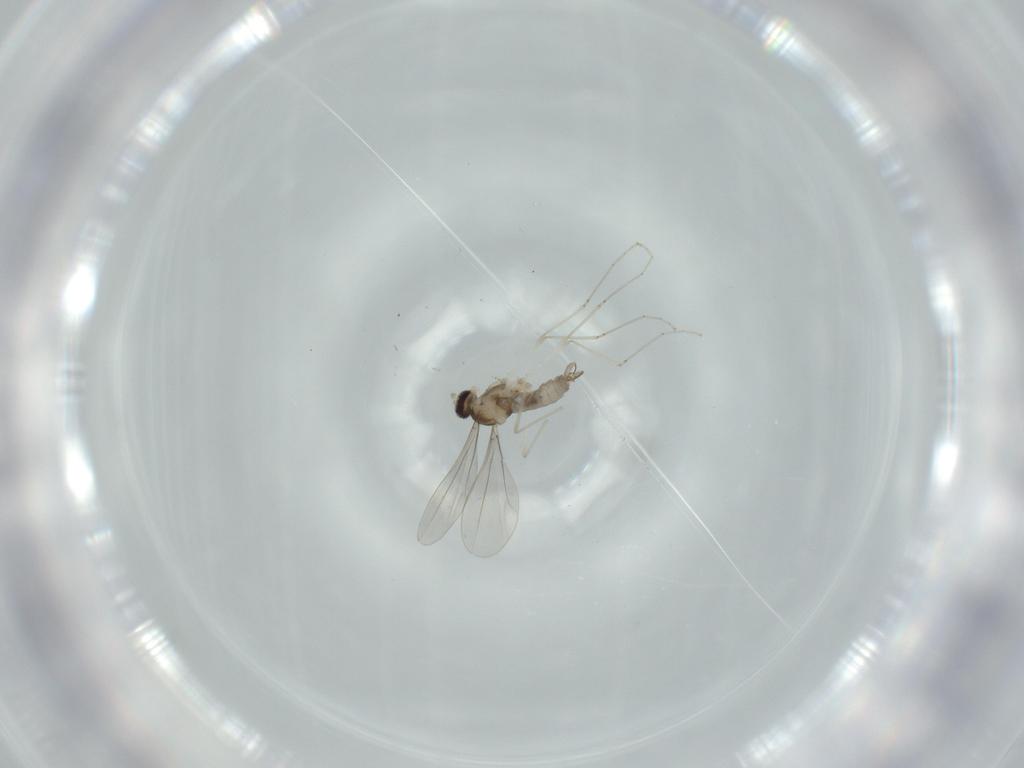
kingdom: Animalia
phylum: Arthropoda
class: Insecta
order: Diptera
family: Cecidomyiidae
